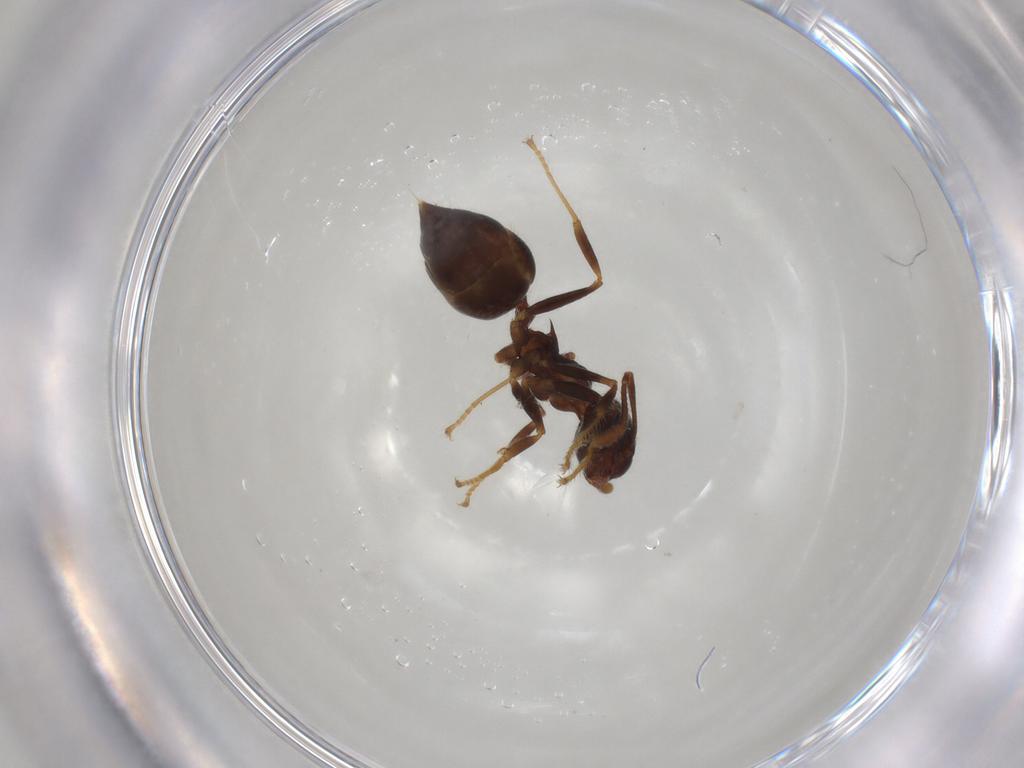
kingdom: Animalia
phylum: Arthropoda
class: Insecta
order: Hymenoptera
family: Formicidae
